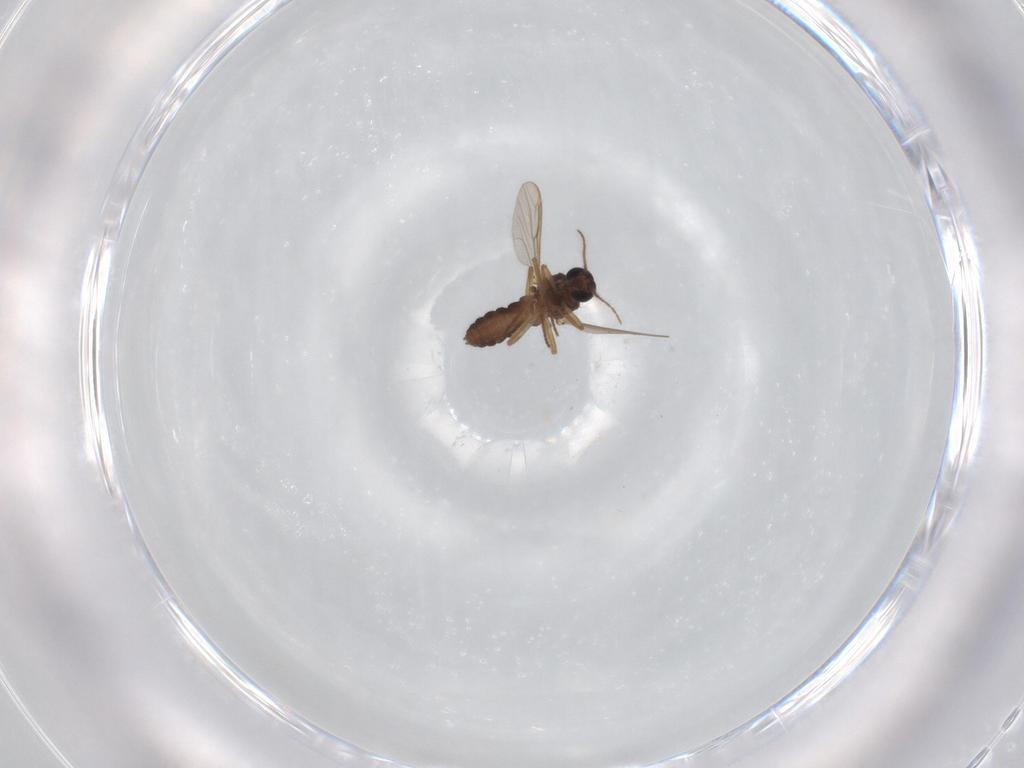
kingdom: Animalia
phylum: Arthropoda
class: Insecta
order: Diptera
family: Ceratopogonidae
